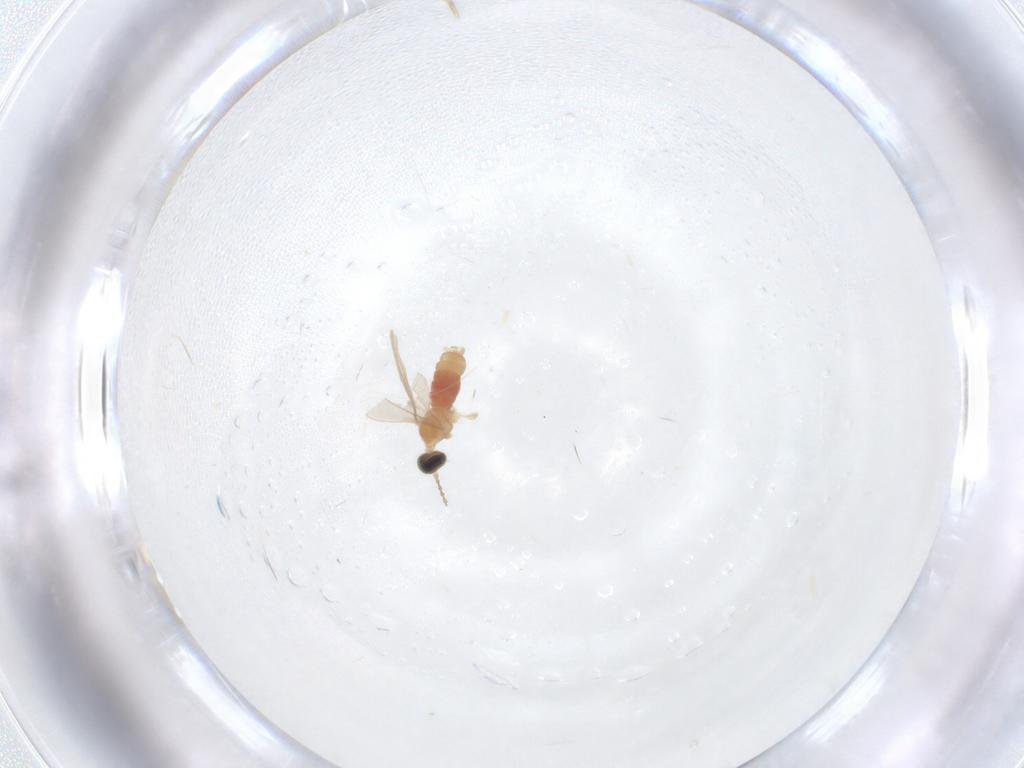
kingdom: Animalia
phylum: Arthropoda
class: Insecta
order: Diptera
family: Cecidomyiidae
